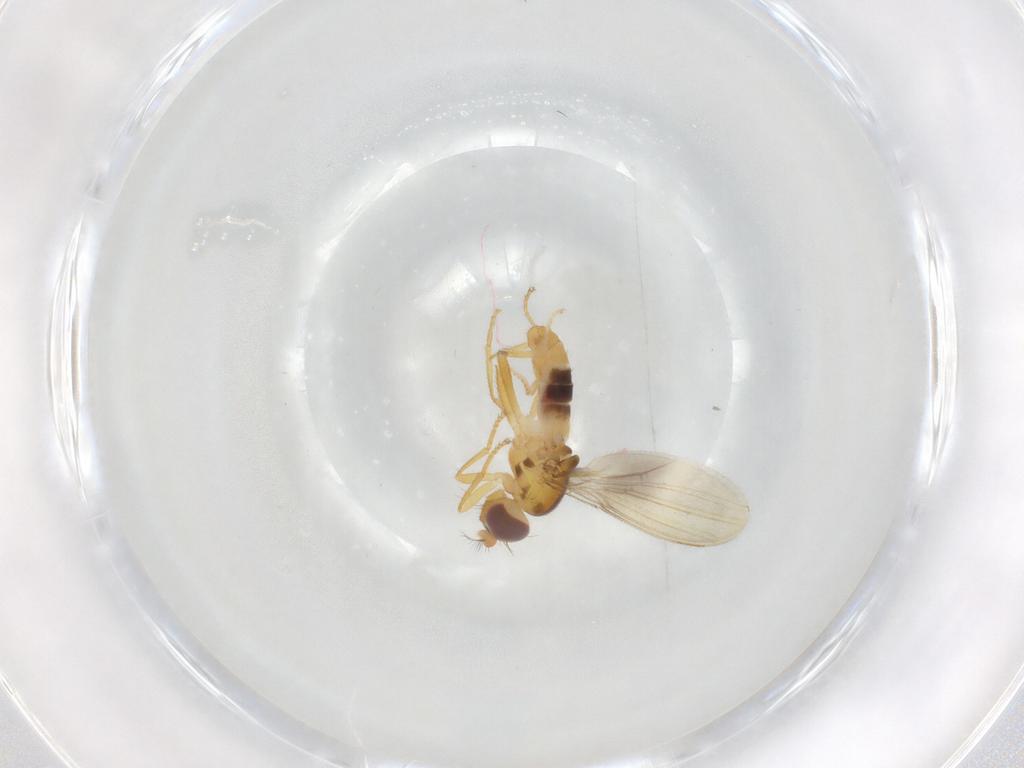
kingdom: Animalia
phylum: Arthropoda
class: Insecta
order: Diptera
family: Periscelididae
